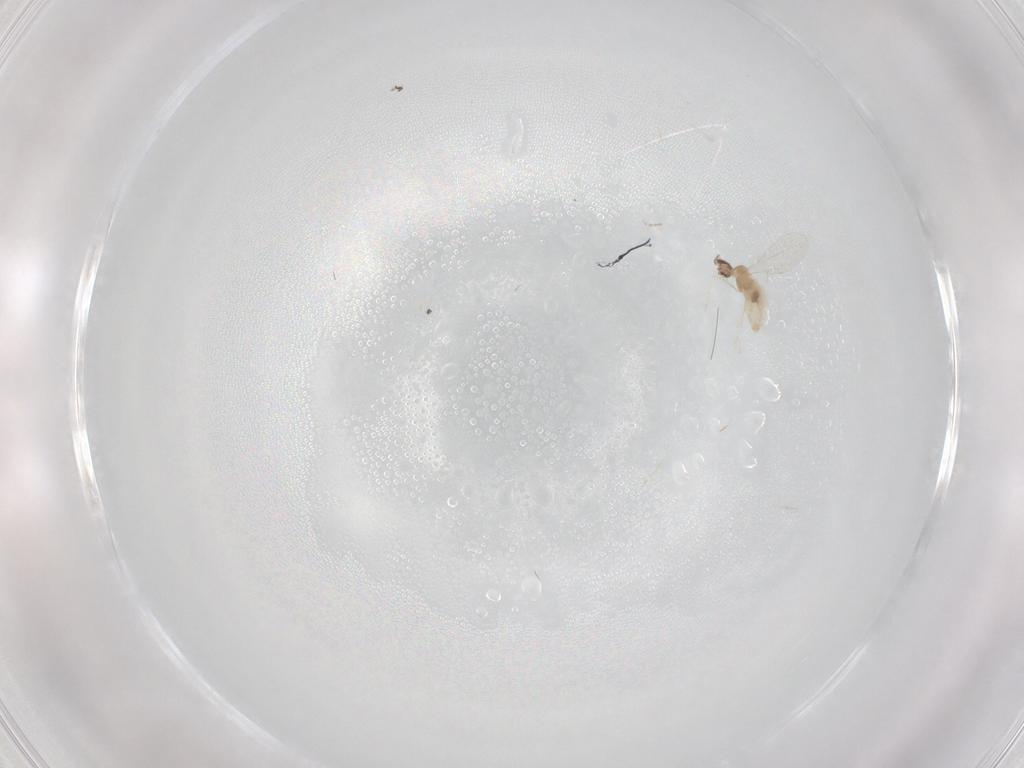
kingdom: Animalia
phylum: Arthropoda
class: Insecta
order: Diptera
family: Cecidomyiidae
